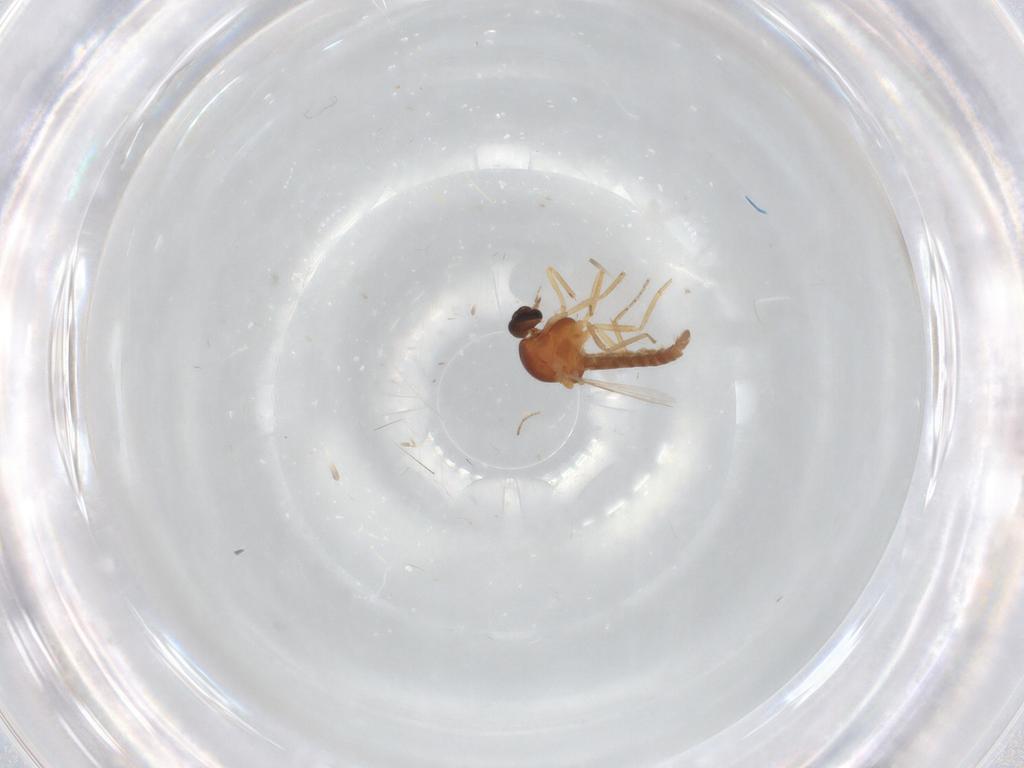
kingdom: Animalia
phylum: Arthropoda
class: Insecta
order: Diptera
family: Ceratopogonidae
